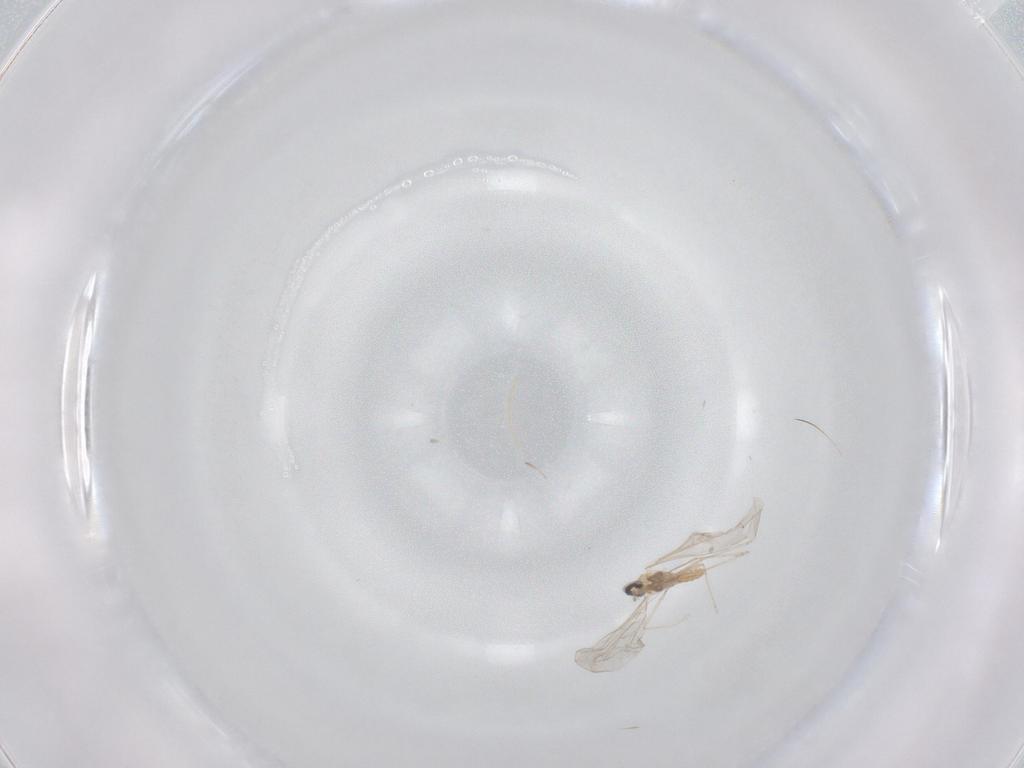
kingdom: Animalia
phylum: Arthropoda
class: Insecta
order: Diptera
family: Cecidomyiidae
